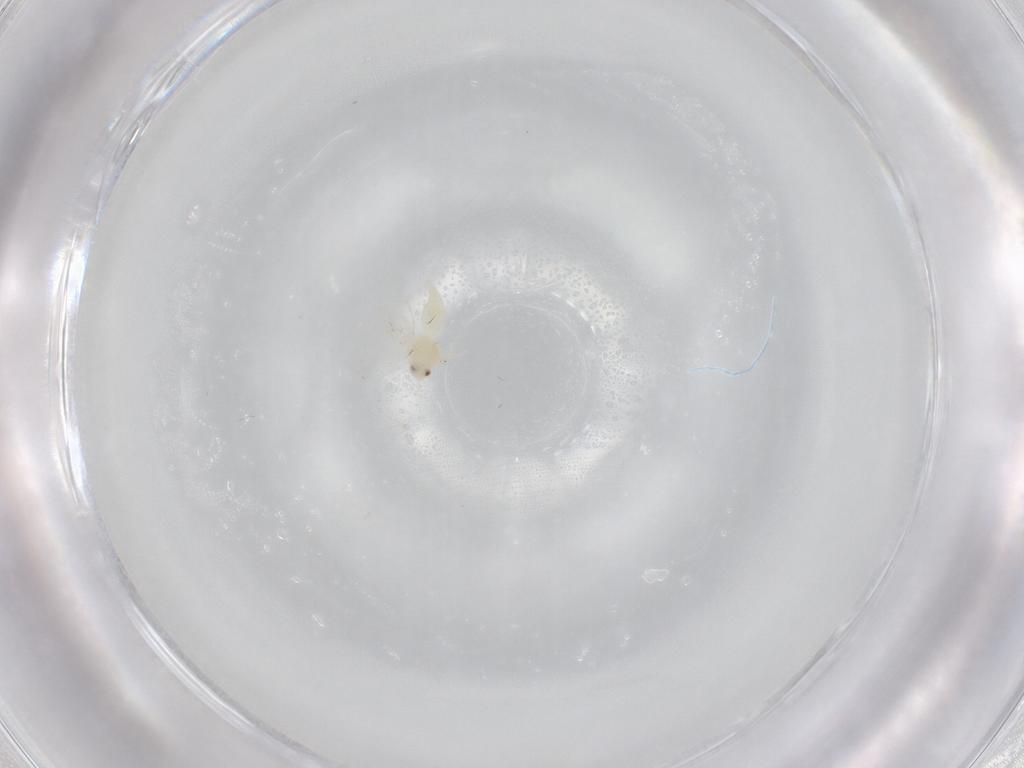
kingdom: Animalia
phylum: Arthropoda
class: Insecta
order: Hemiptera
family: Aleyrodidae
